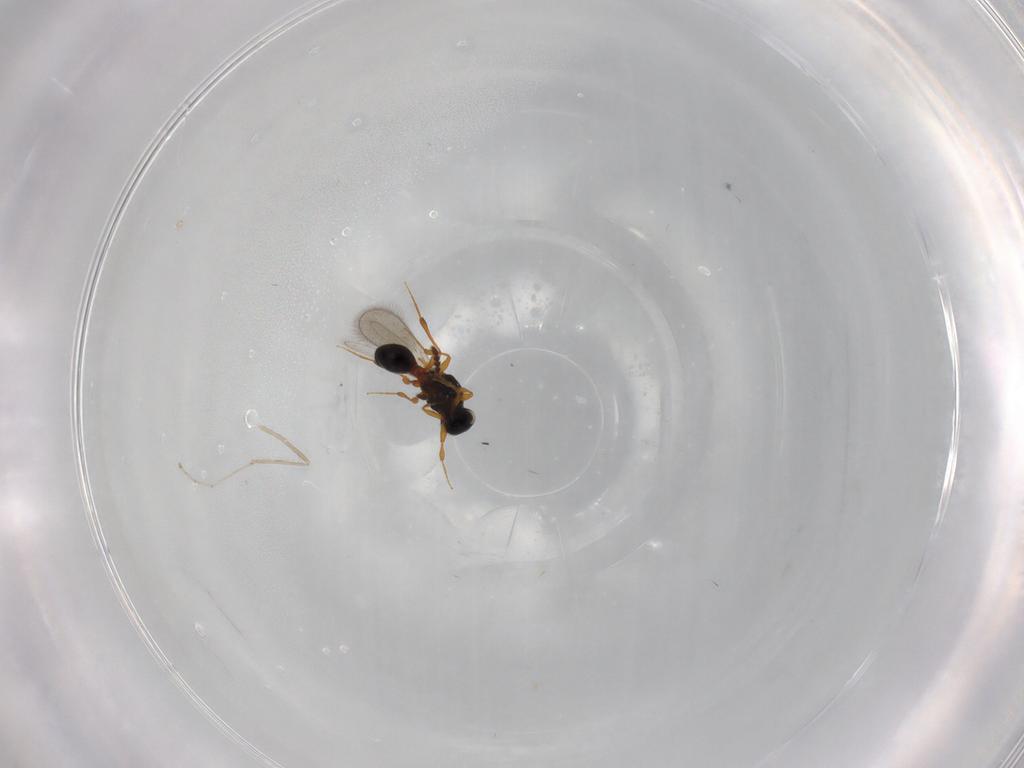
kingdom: Animalia
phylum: Arthropoda
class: Insecta
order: Hymenoptera
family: Platygastridae
